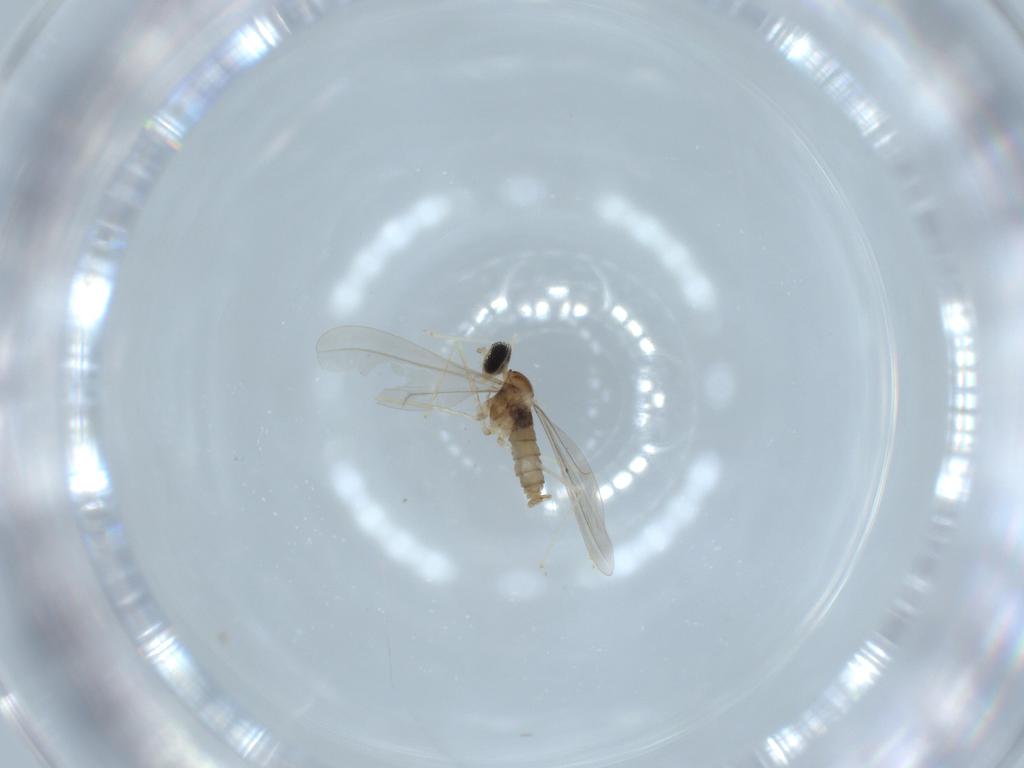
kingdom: Animalia
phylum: Arthropoda
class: Insecta
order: Diptera
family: Cecidomyiidae
